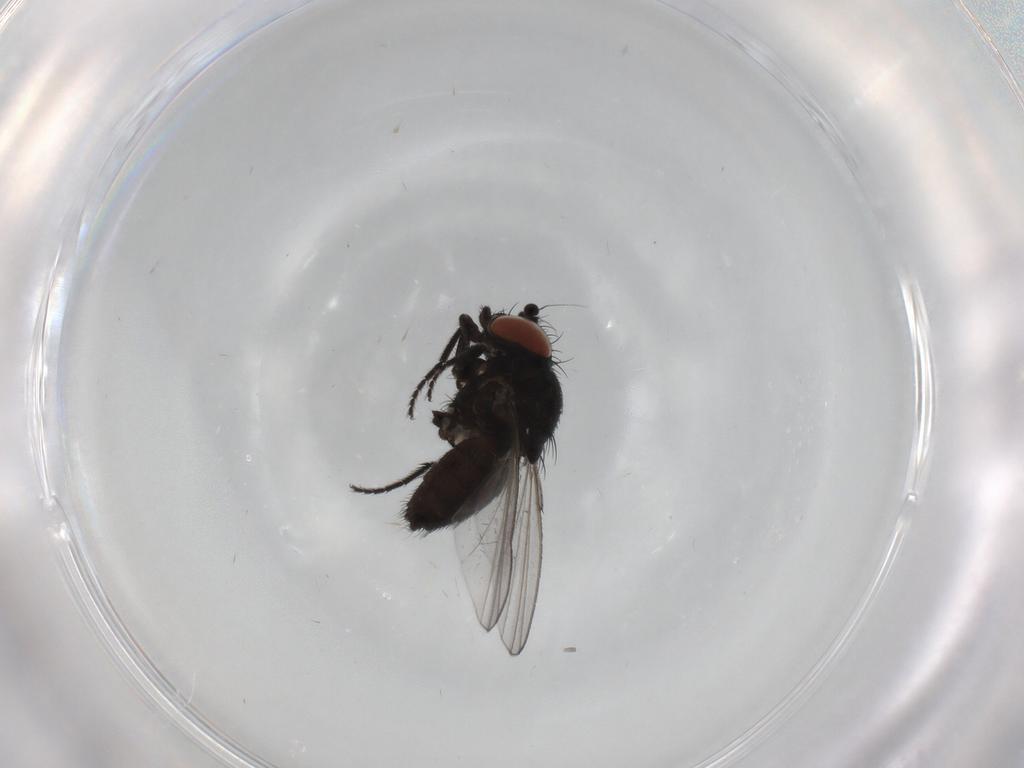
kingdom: Animalia
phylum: Arthropoda
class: Insecta
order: Diptera
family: Milichiidae
